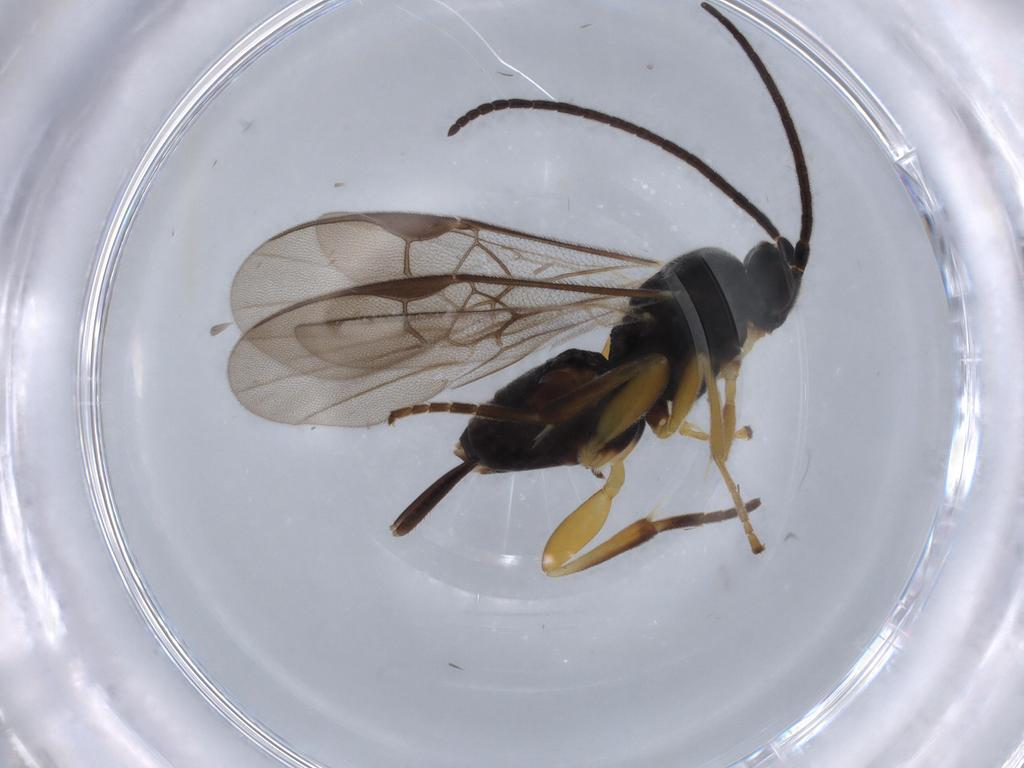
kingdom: Animalia
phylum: Arthropoda
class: Insecta
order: Hymenoptera
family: Braconidae
